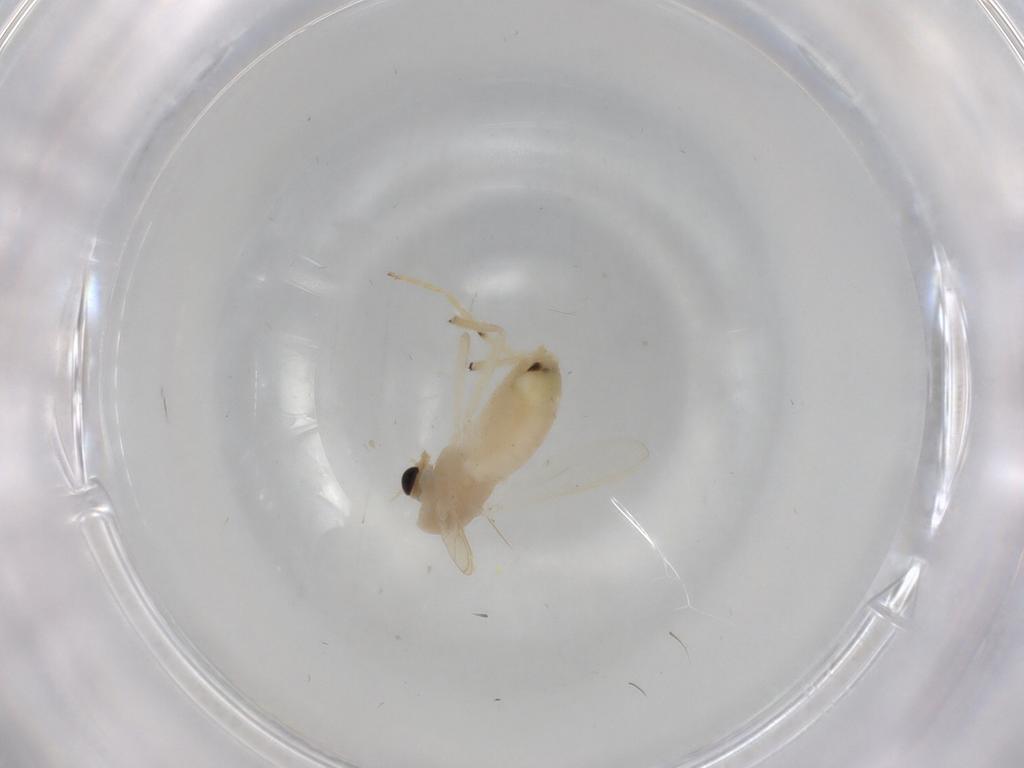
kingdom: Animalia
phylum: Arthropoda
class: Insecta
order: Diptera
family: Chironomidae
